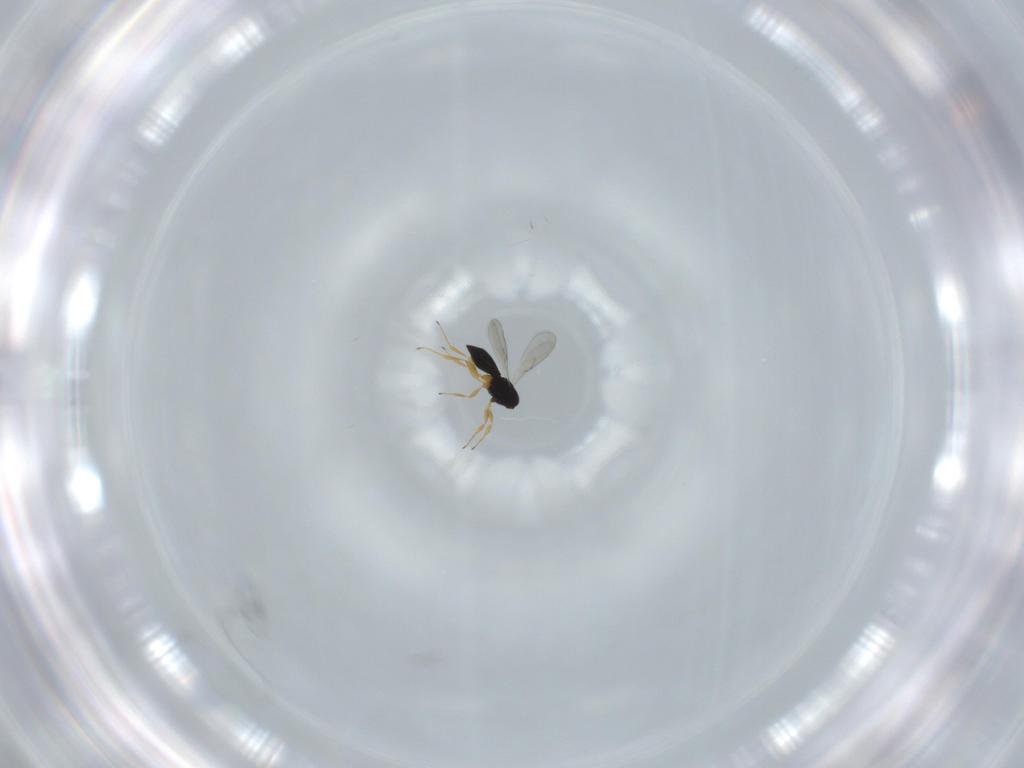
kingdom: Animalia
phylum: Arthropoda
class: Insecta
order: Hymenoptera
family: Scelionidae
